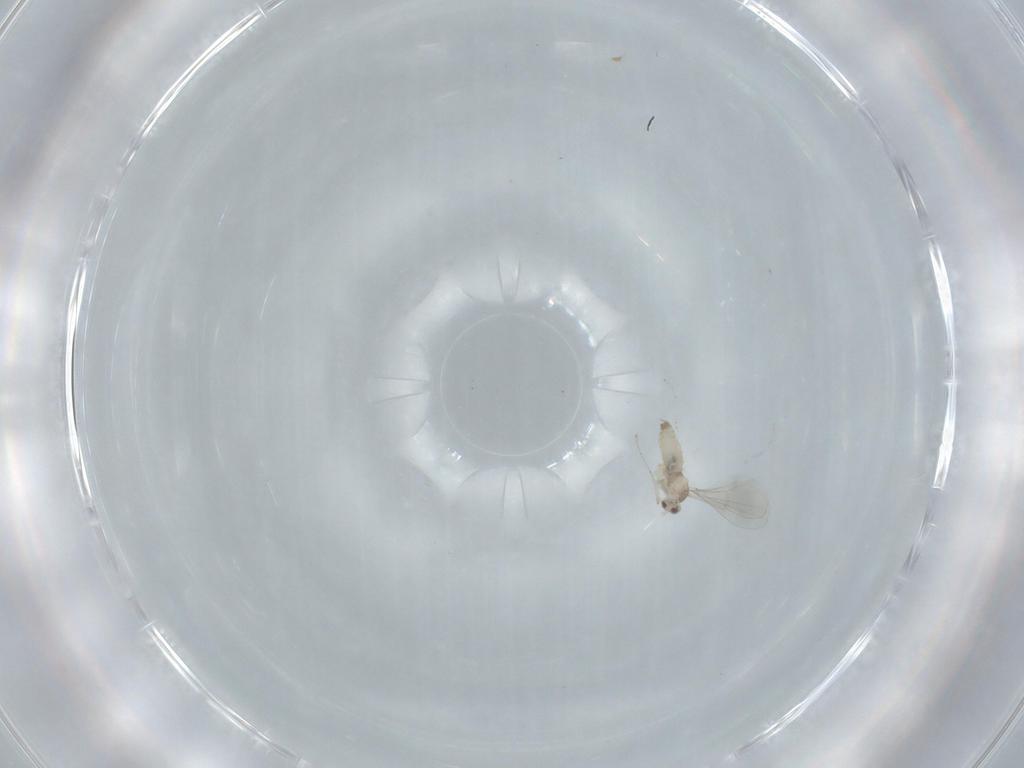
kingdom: Animalia
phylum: Arthropoda
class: Insecta
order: Diptera
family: Cecidomyiidae
